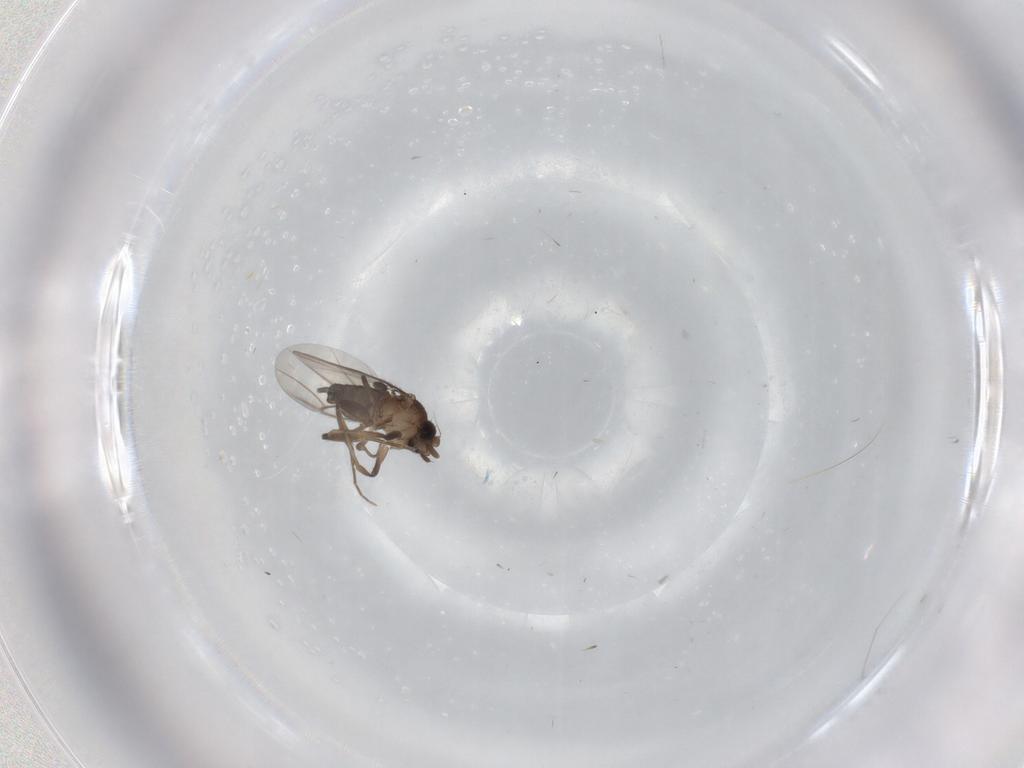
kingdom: Animalia
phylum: Arthropoda
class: Insecta
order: Diptera
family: Phoridae
